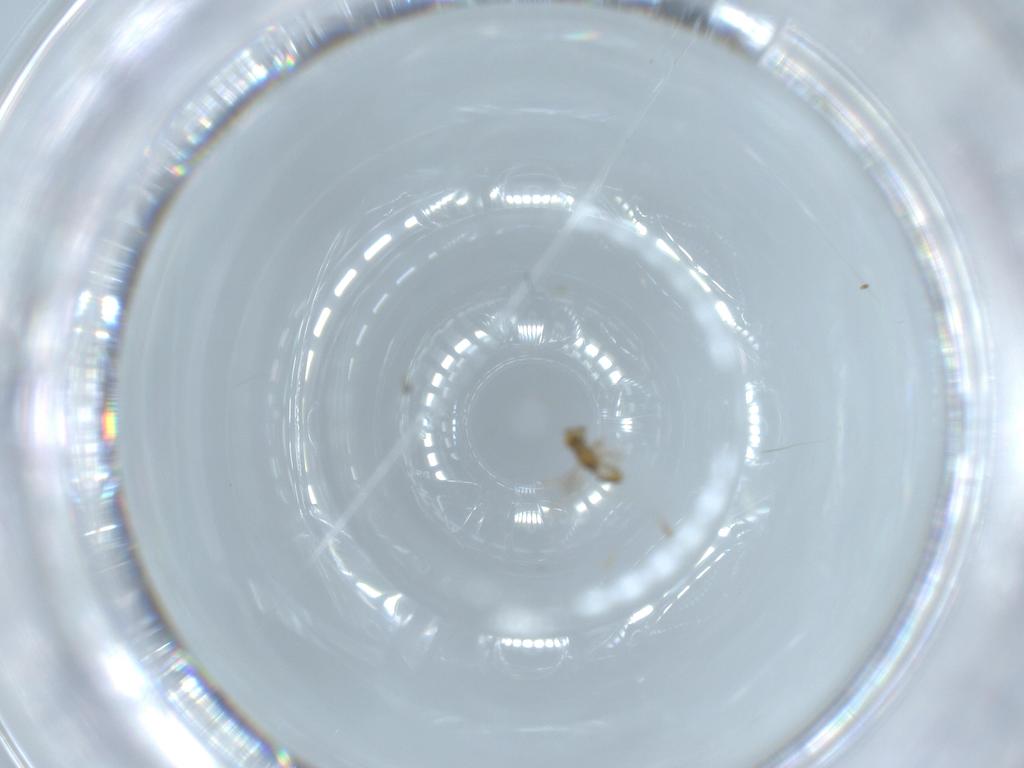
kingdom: Animalia
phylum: Arthropoda
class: Insecta
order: Hymenoptera
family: Encyrtidae
